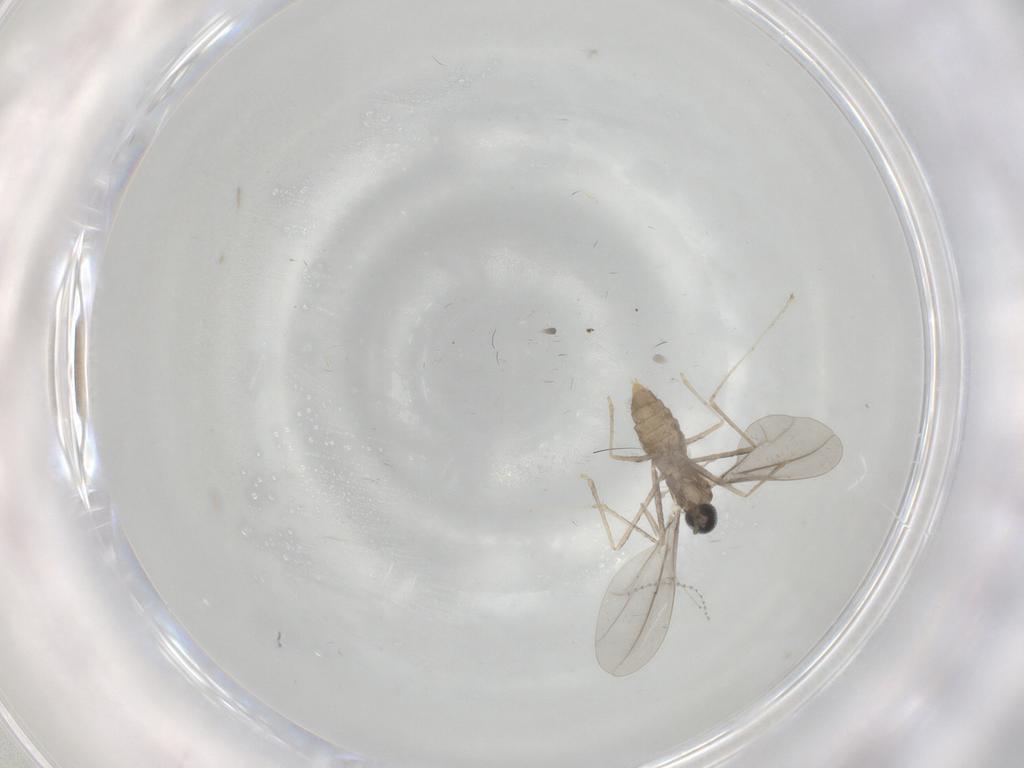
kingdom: Animalia
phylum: Arthropoda
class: Insecta
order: Diptera
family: Cecidomyiidae
